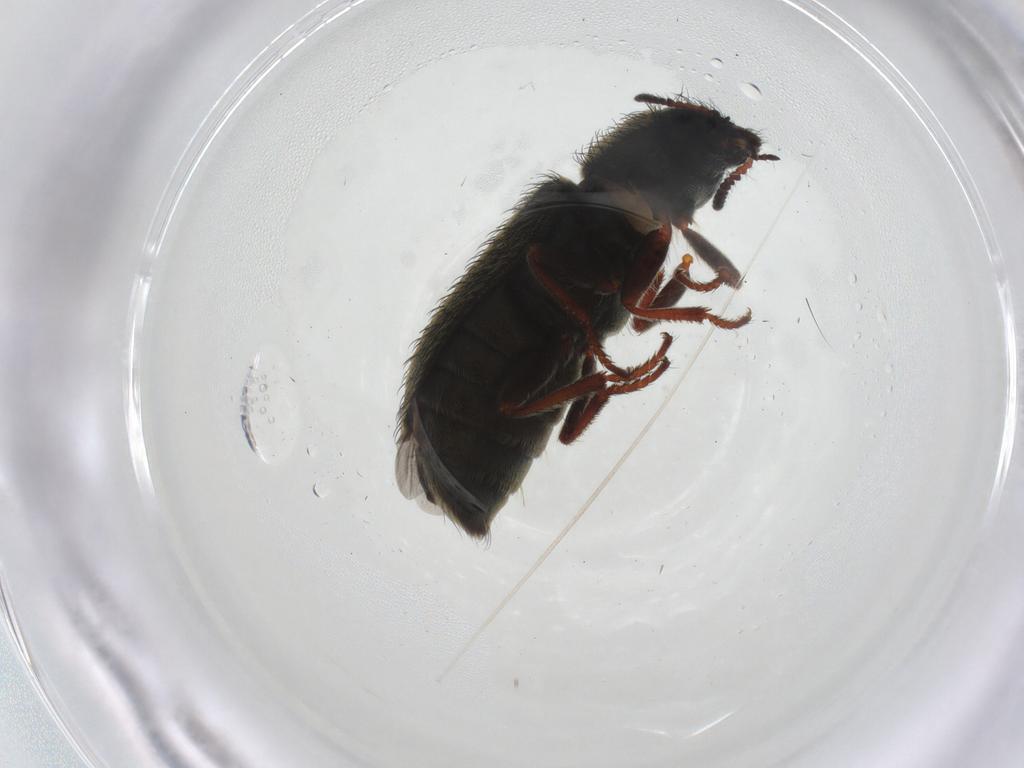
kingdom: Animalia
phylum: Arthropoda
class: Insecta
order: Coleoptera
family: Melyridae
